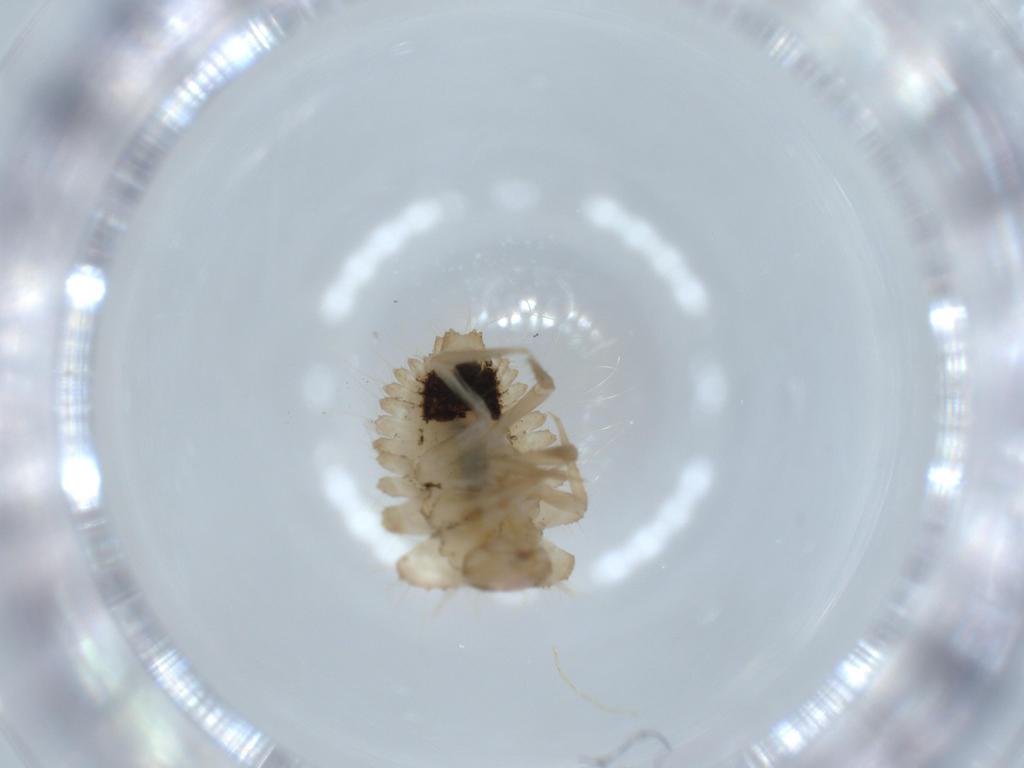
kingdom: Animalia
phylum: Arthropoda
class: Insecta
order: Coleoptera
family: Anamorphidae
